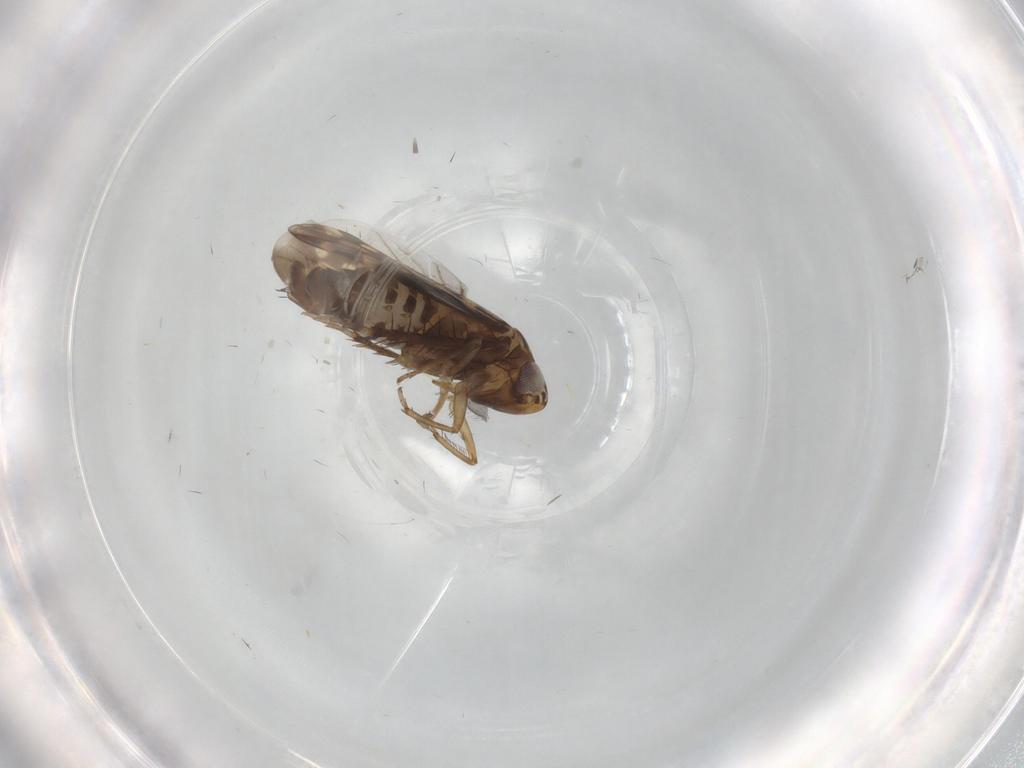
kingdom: Animalia
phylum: Arthropoda
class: Insecta
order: Hemiptera
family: Cicadellidae
